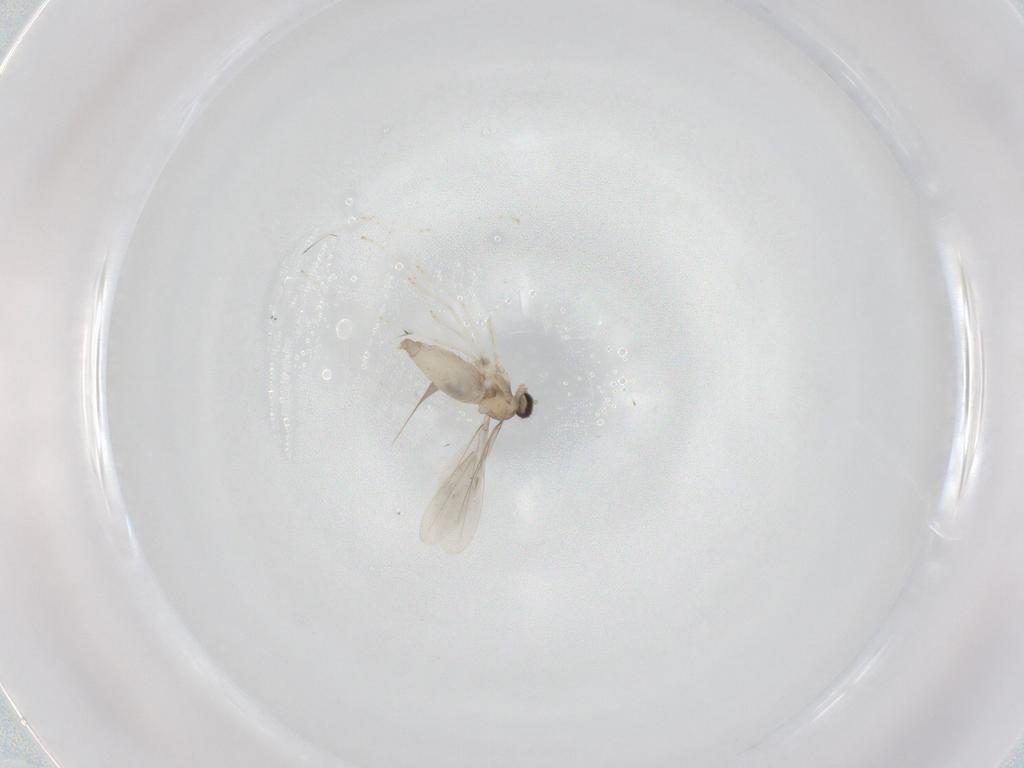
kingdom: Animalia
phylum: Arthropoda
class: Insecta
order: Diptera
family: Cecidomyiidae
